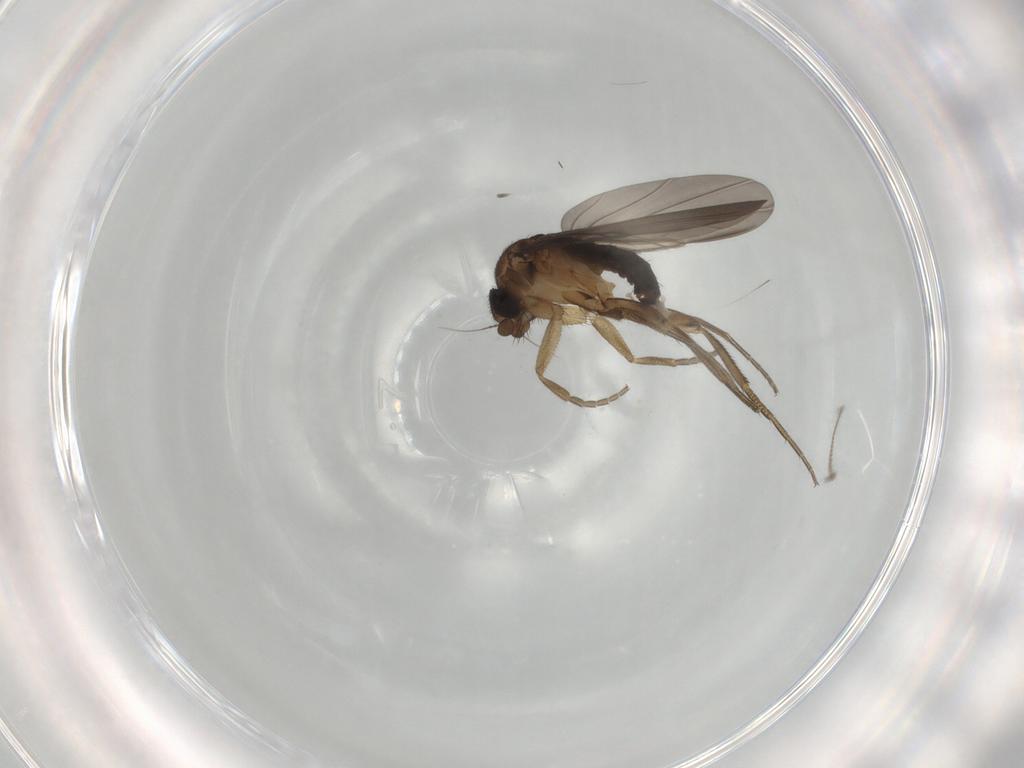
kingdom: Animalia
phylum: Arthropoda
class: Insecta
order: Diptera
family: Phoridae
